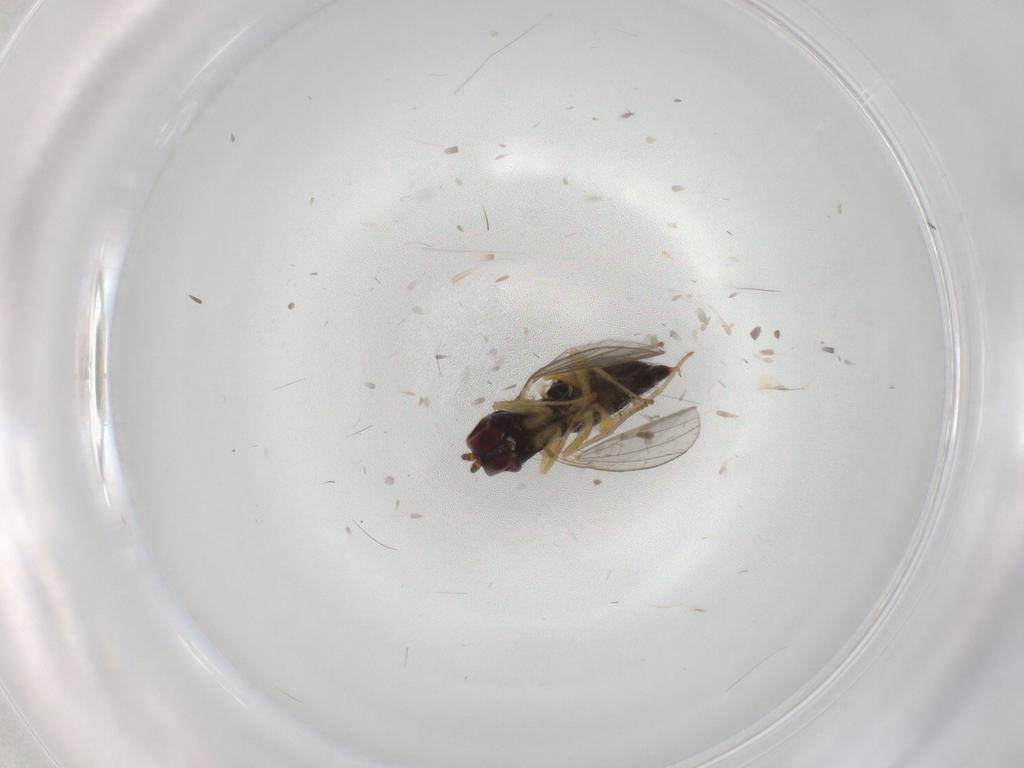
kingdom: Animalia
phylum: Arthropoda
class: Insecta
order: Diptera
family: Dolichopodidae
